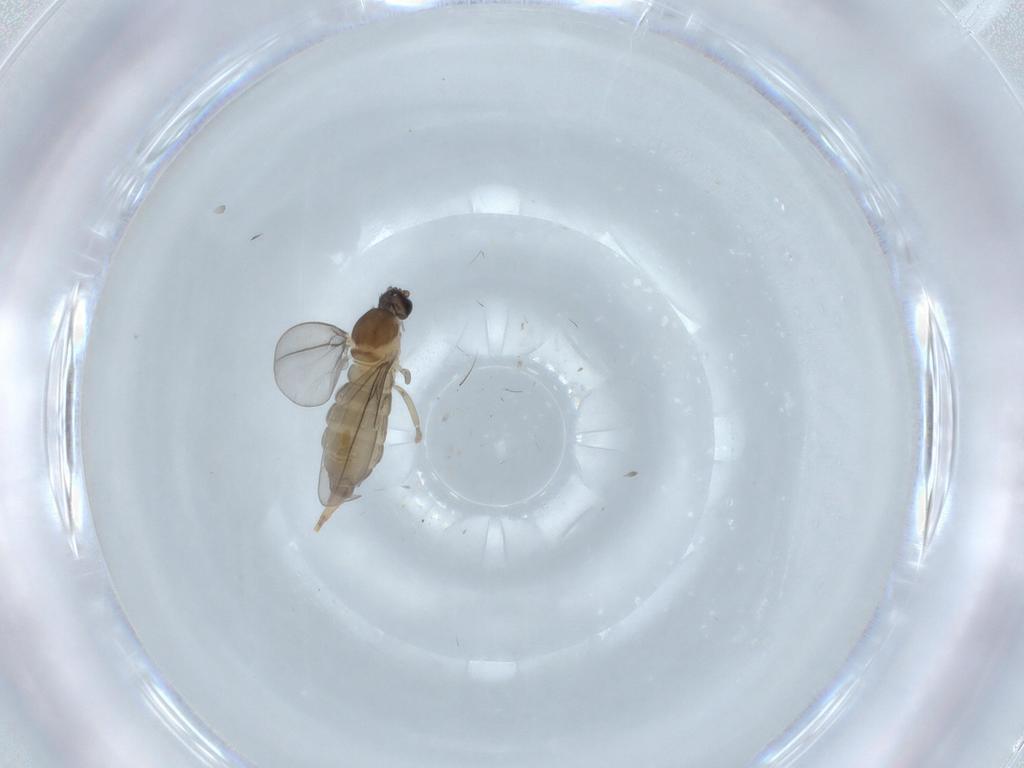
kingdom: Animalia
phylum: Arthropoda
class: Insecta
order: Diptera
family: Cecidomyiidae
